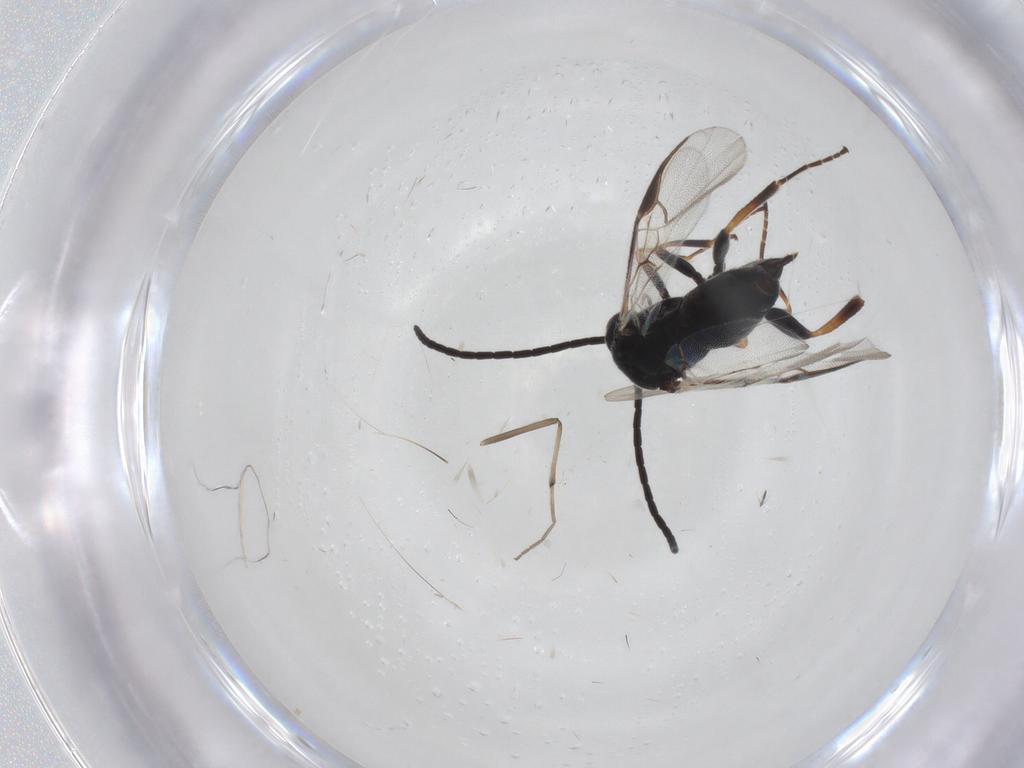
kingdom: Animalia
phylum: Arthropoda
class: Insecta
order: Hymenoptera
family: Braconidae
